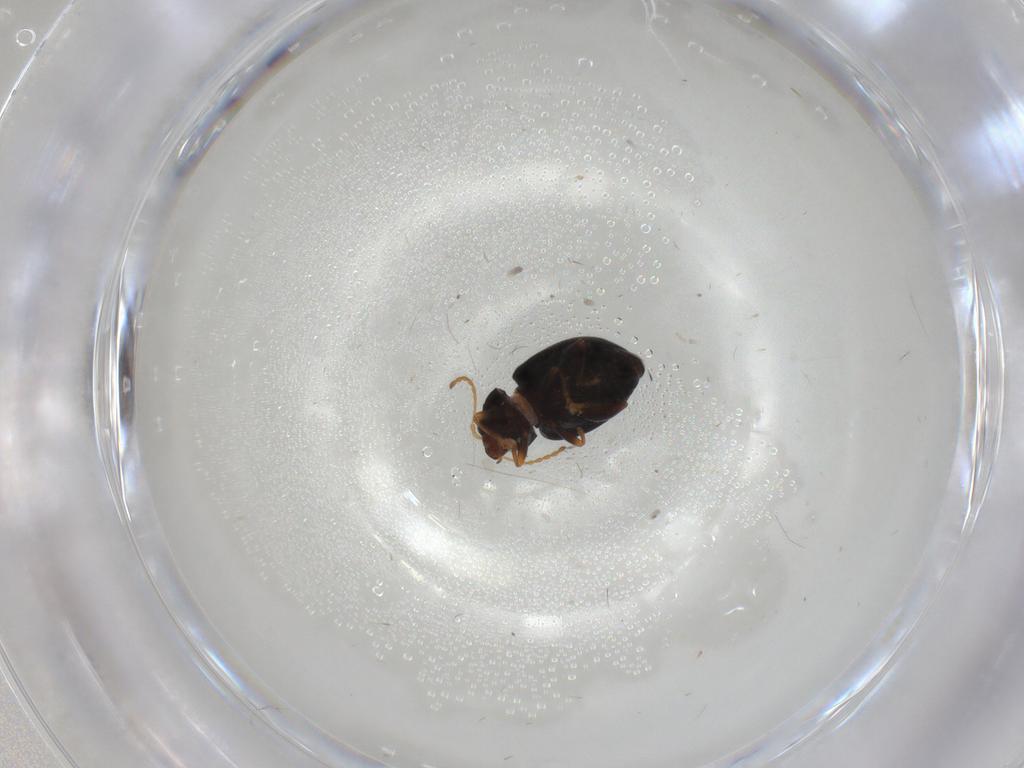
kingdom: Animalia
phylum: Arthropoda
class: Insecta
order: Coleoptera
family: Chrysomelidae
